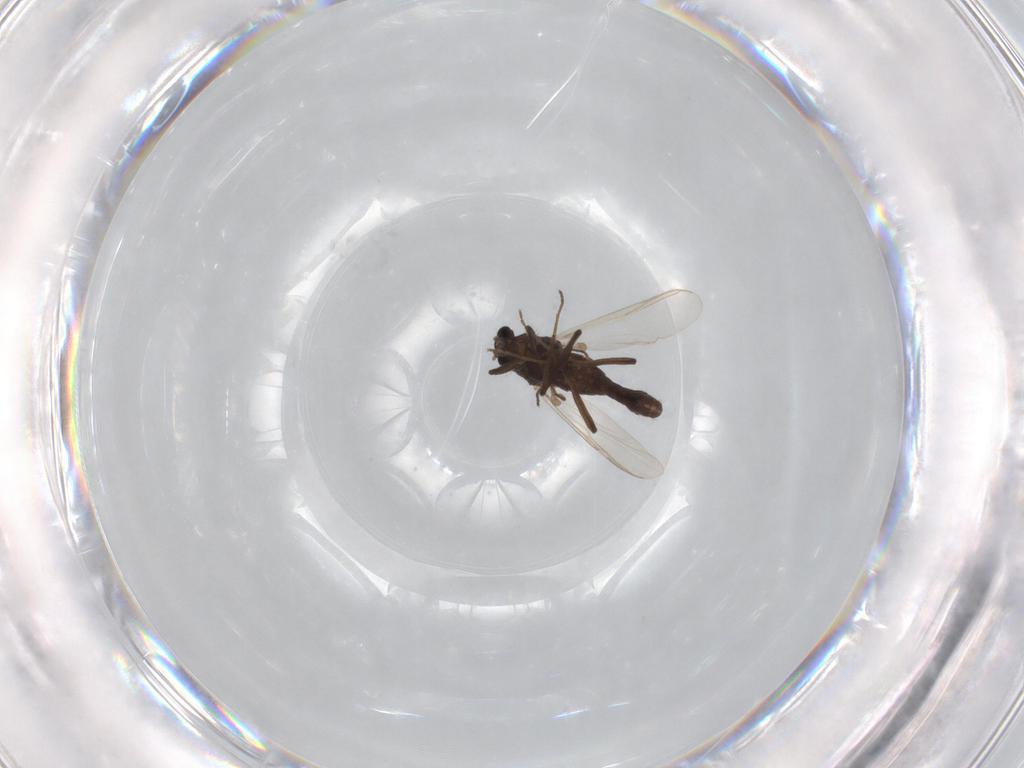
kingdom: Animalia
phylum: Arthropoda
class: Insecta
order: Diptera
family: Chironomidae
